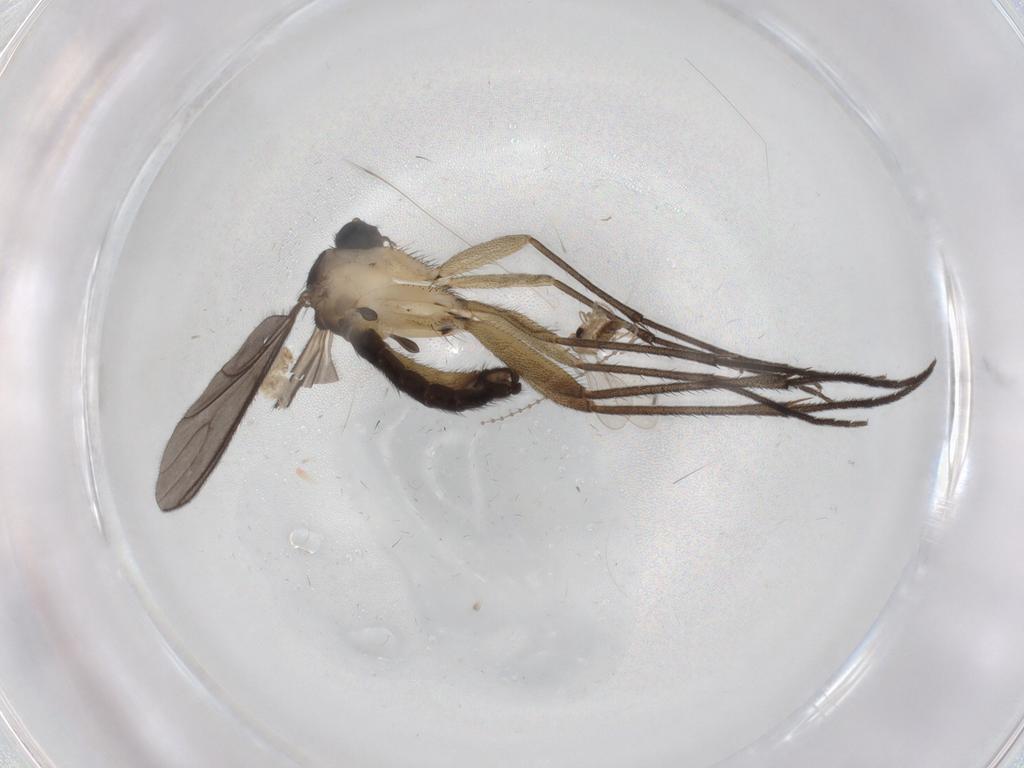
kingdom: Animalia
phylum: Arthropoda
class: Insecta
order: Diptera
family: Sciaridae
